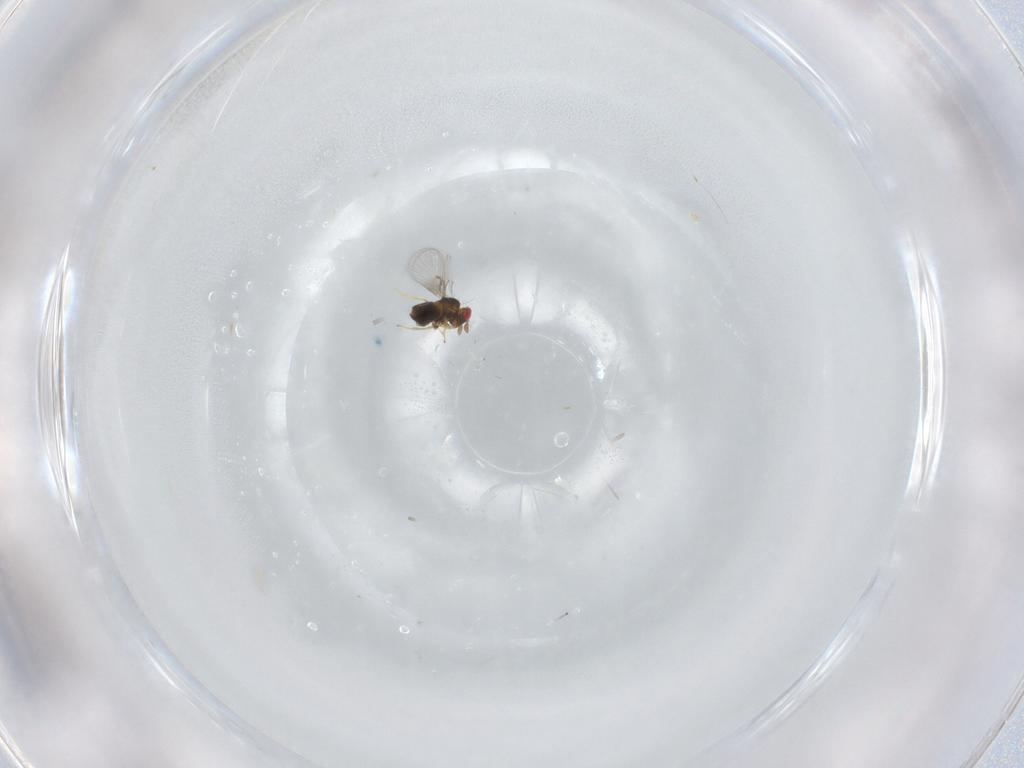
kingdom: Animalia
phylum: Arthropoda
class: Insecta
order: Hymenoptera
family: Trichogrammatidae
